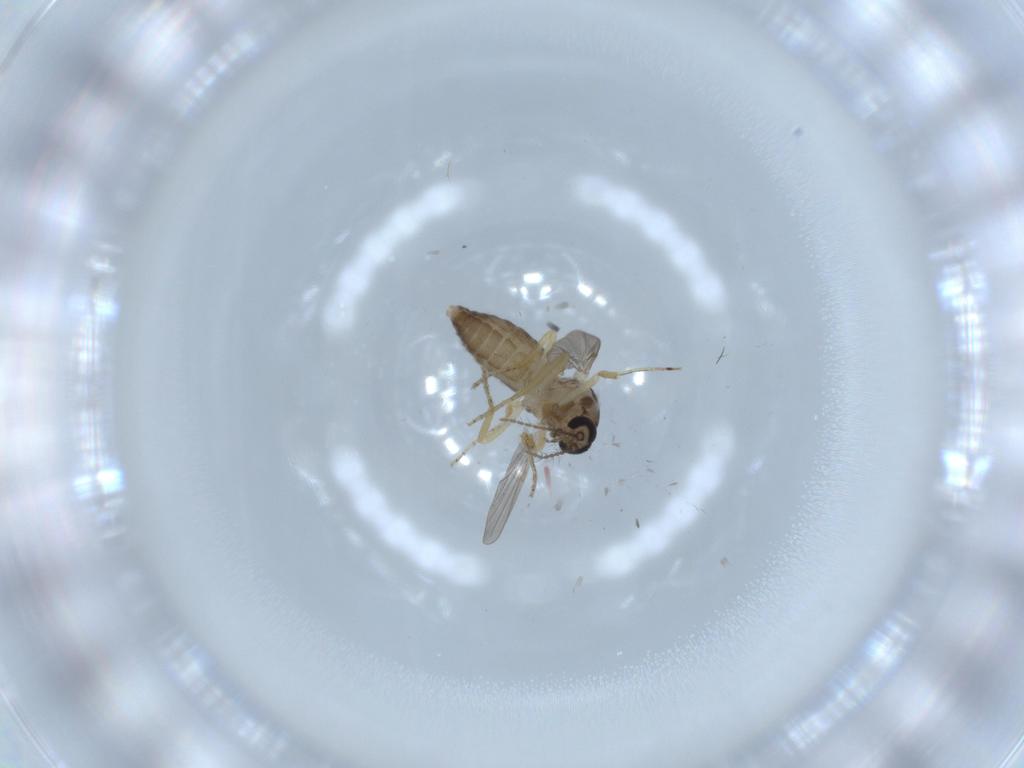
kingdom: Animalia
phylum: Arthropoda
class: Insecta
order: Diptera
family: Ceratopogonidae
